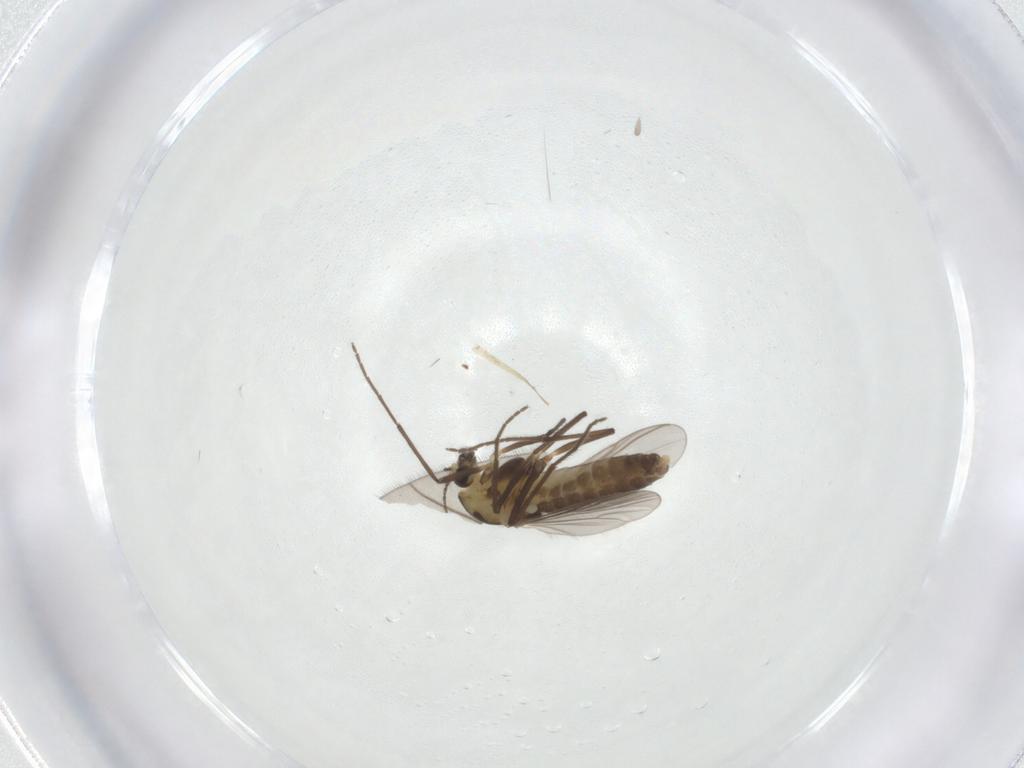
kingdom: Animalia
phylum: Arthropoda
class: Insecta
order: Diptera
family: Chironomidae
